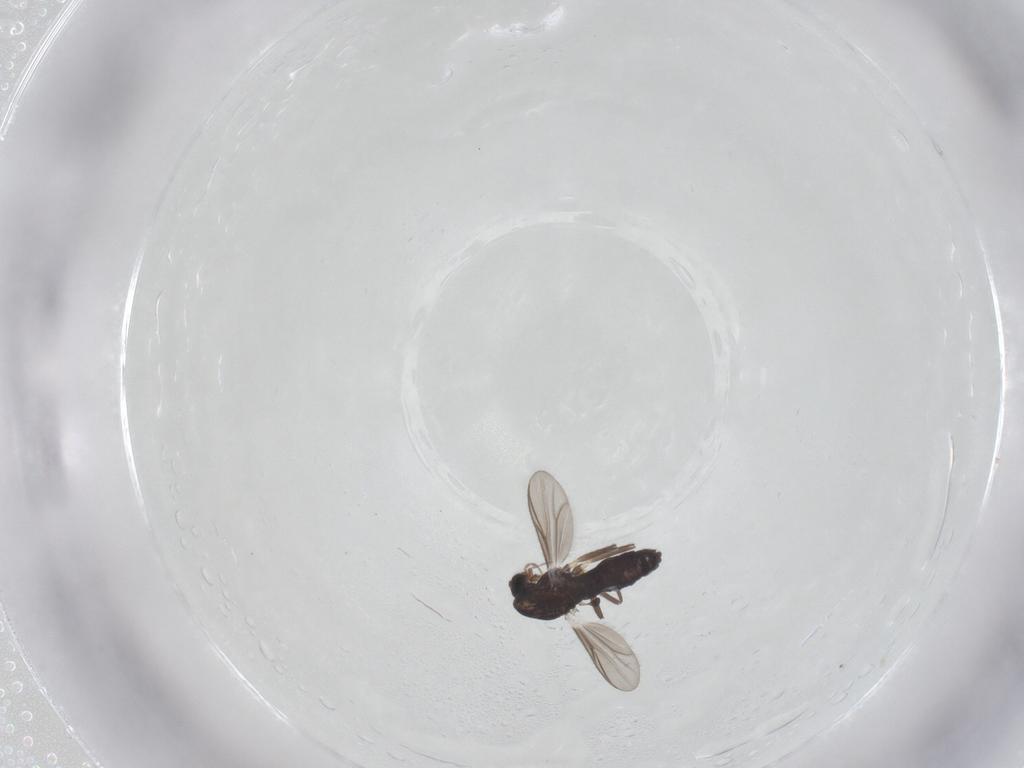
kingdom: Animalia
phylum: Arthropoda
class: Insecta
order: Diptera
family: Chironomidae
